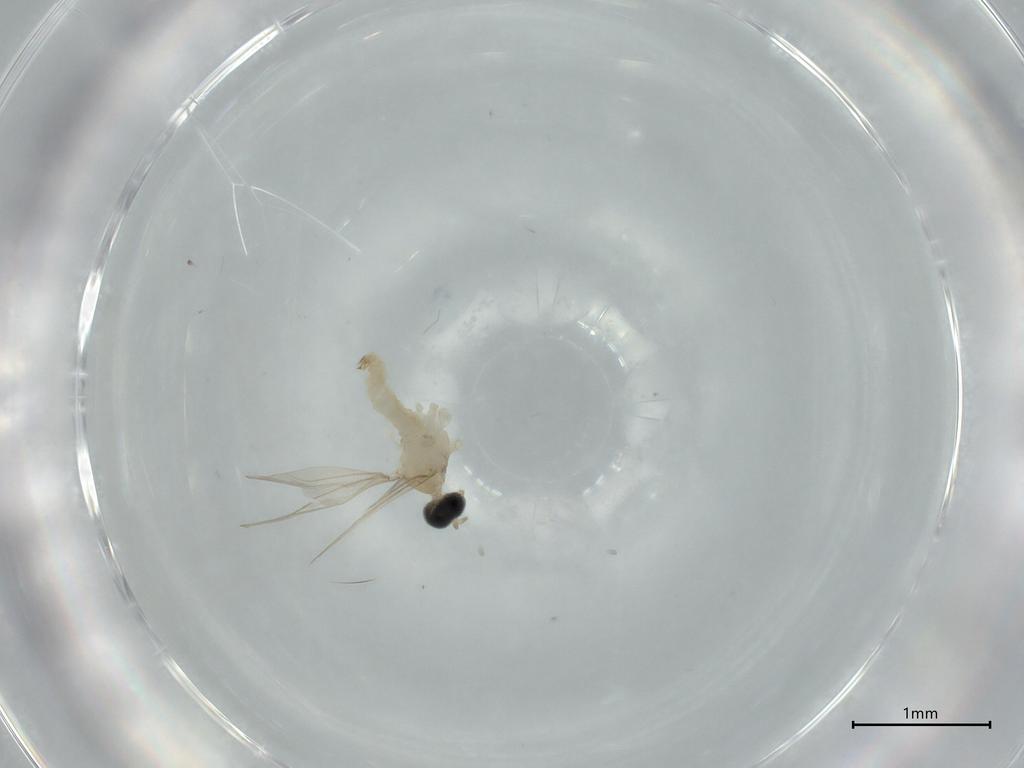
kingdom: Animalia
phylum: Arthropoda
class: Insecta
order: Diptera
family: Cecidomyiidae
